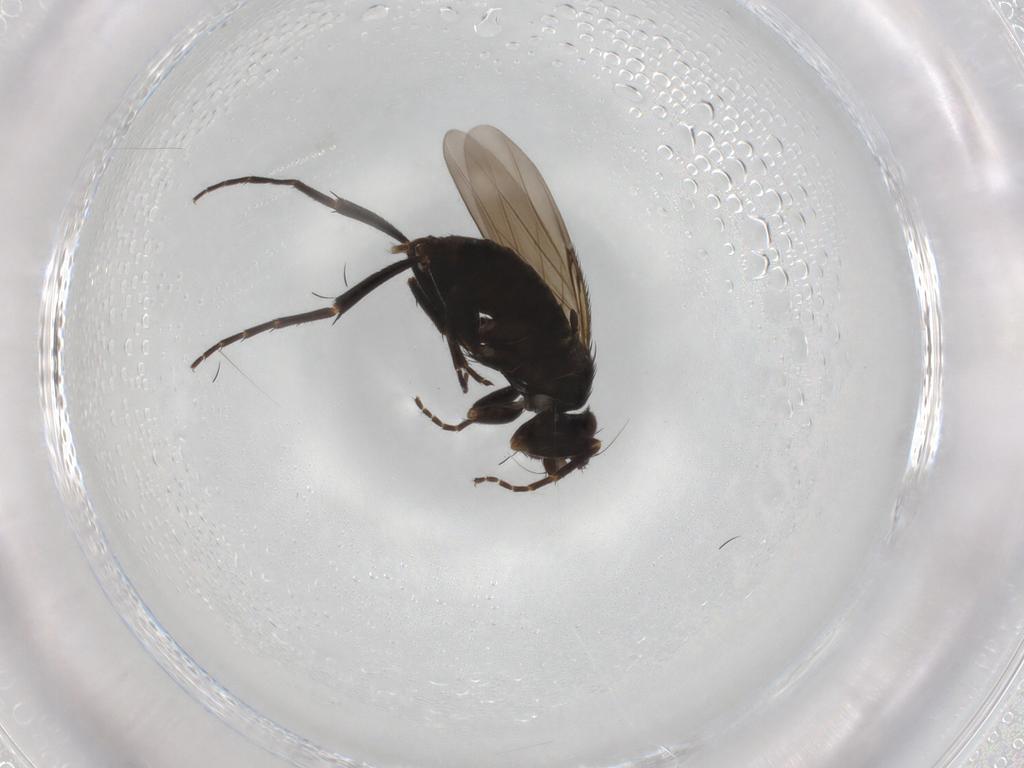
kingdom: Animalia
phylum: Arthropoda
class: Insecta
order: Diptera
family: Phoridae
